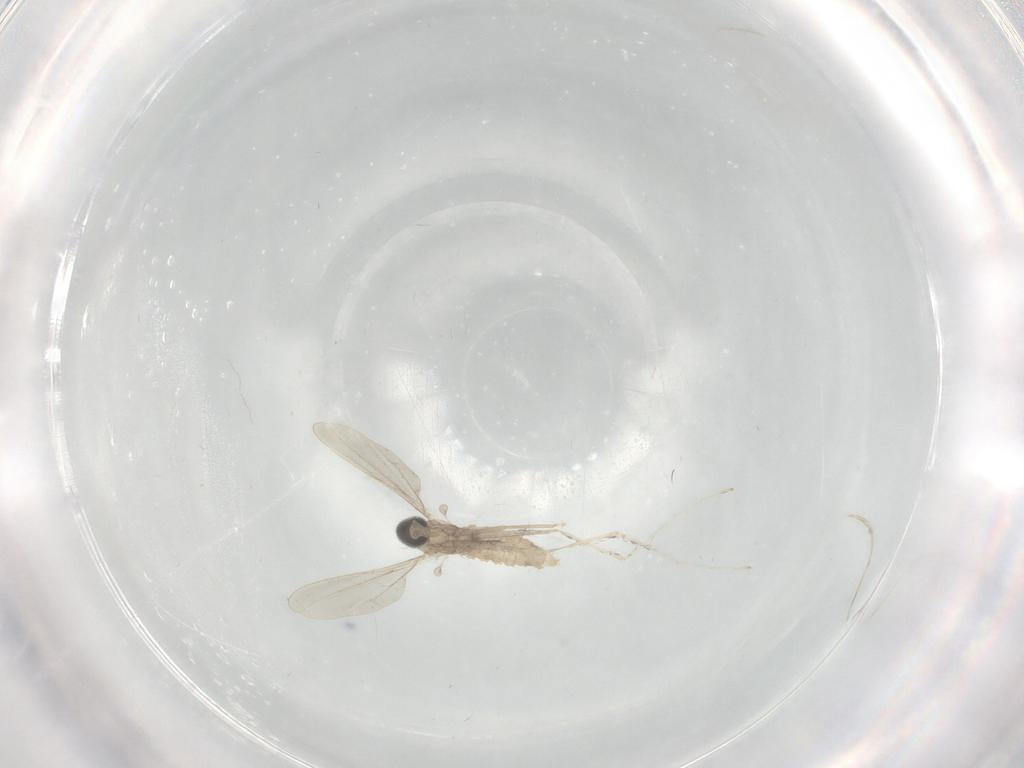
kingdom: Animalia
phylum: Arthropoda
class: Insecta
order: Diptera
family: Cecidomyiidae
